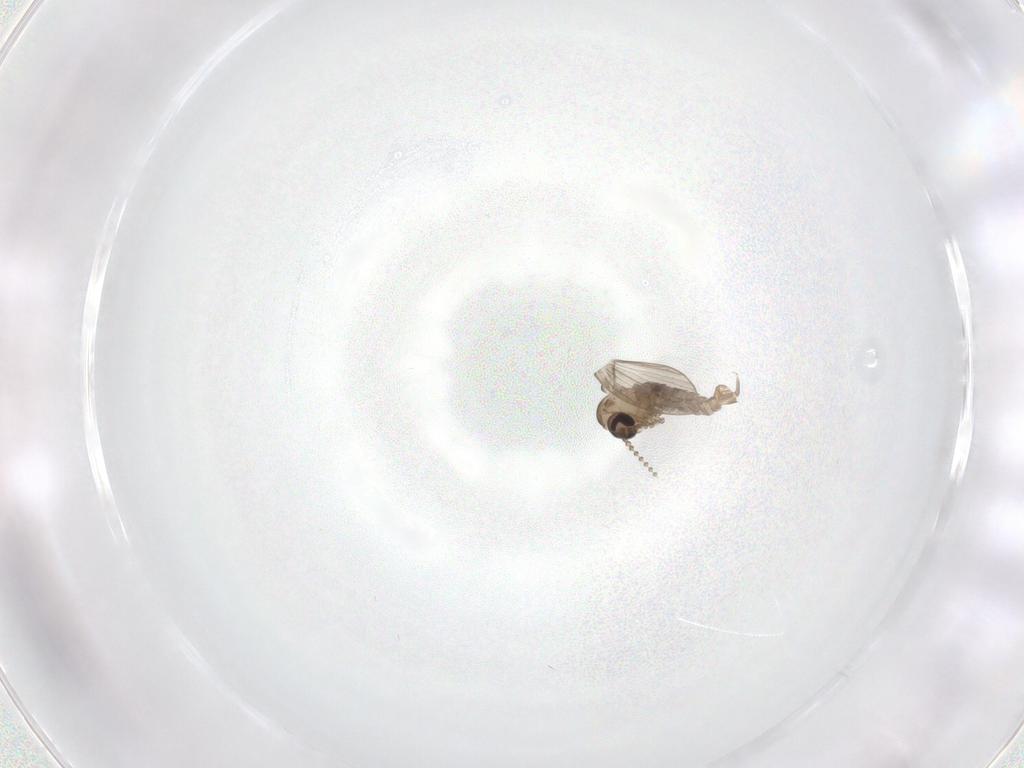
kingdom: Animalia
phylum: Arthropoda
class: Insecta
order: Diptera
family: Psychodidae
